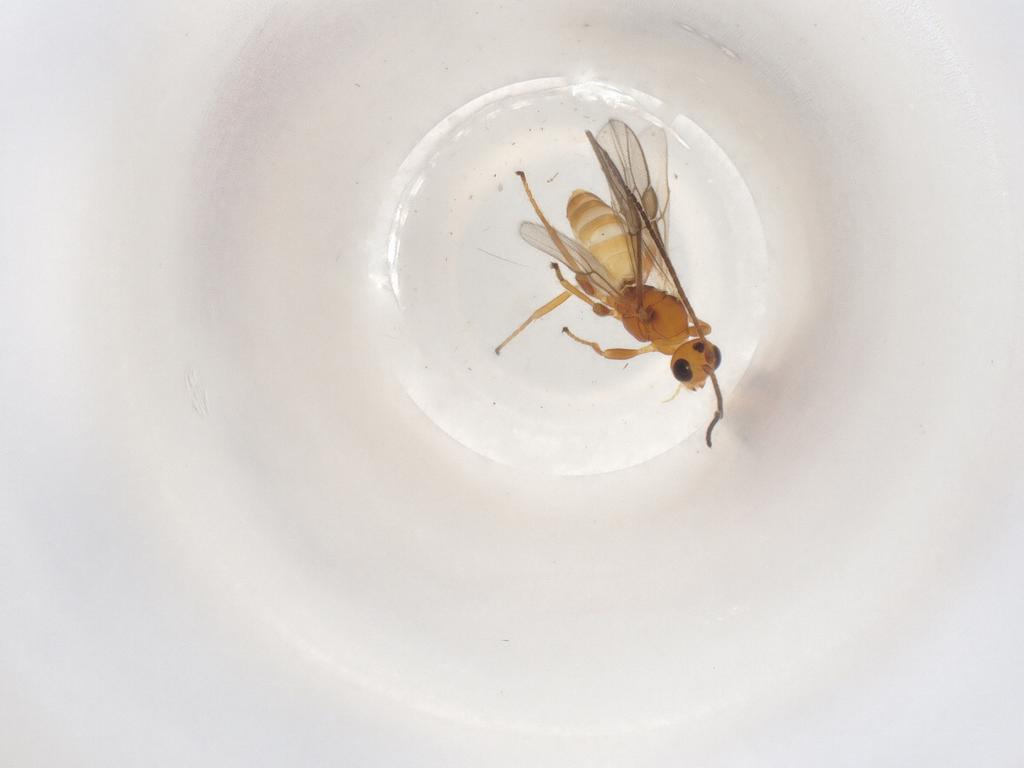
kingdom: Animalia
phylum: Arthropoda
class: Insecta
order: Hymenoptera
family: Braconidae
